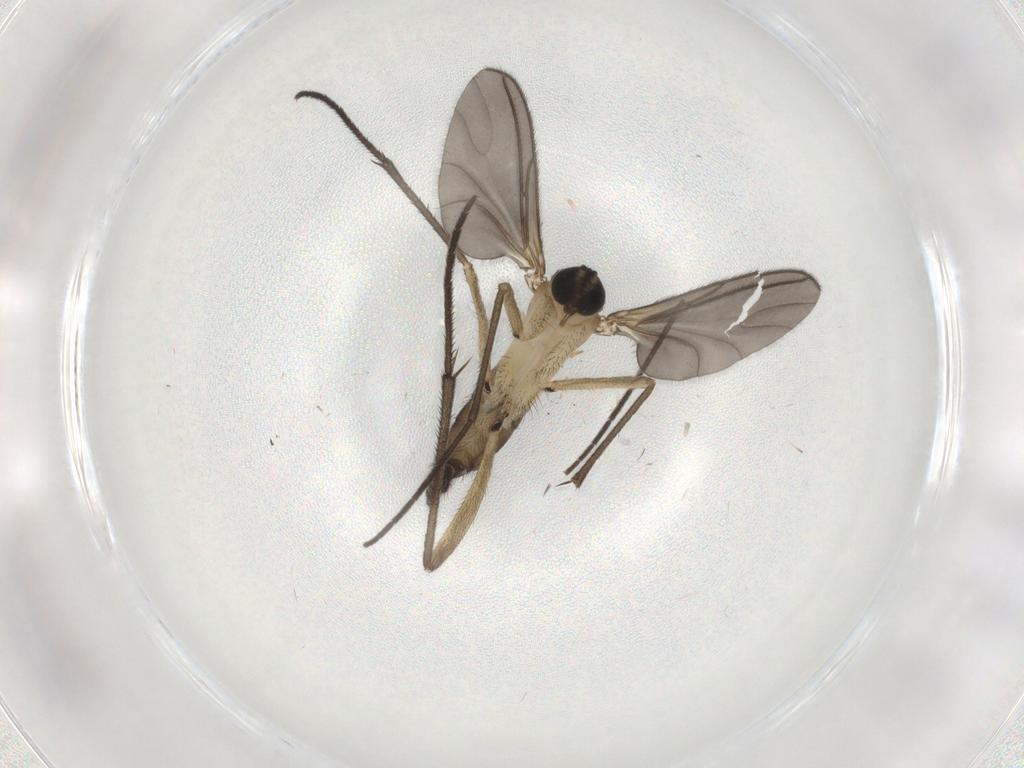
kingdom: Animalia
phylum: Arthropoda
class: Insecta
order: Diptera
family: Sciaridae
